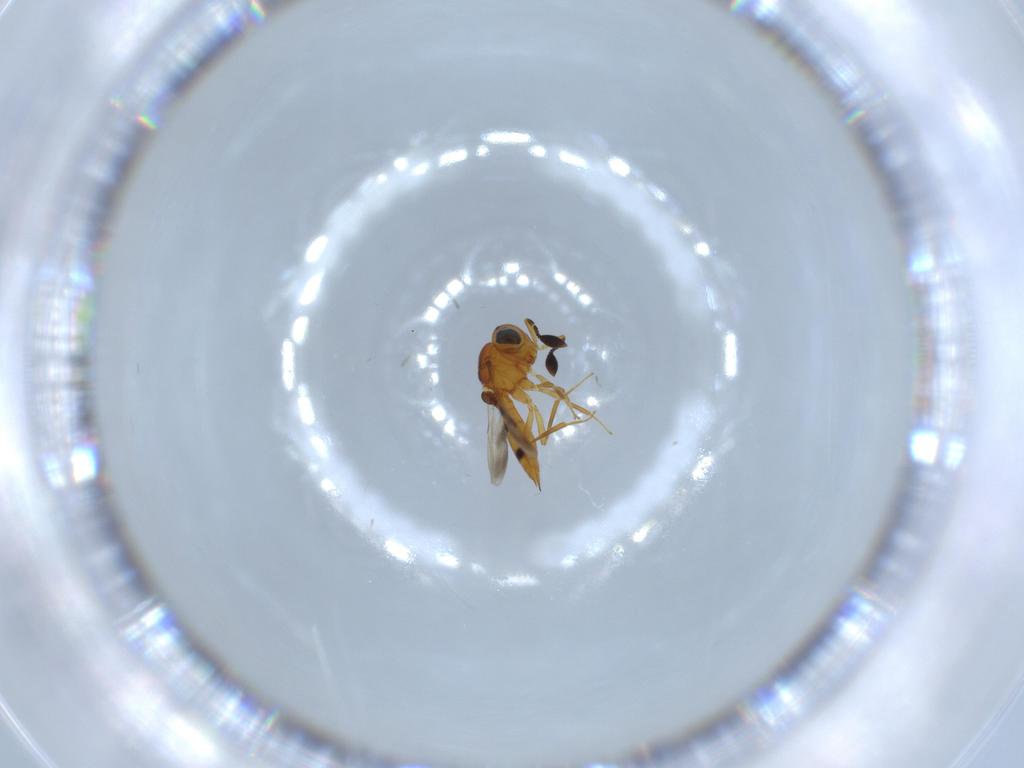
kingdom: Animalia
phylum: Arthropoda
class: Insecta
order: Hymenoptera
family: Scelionidae
